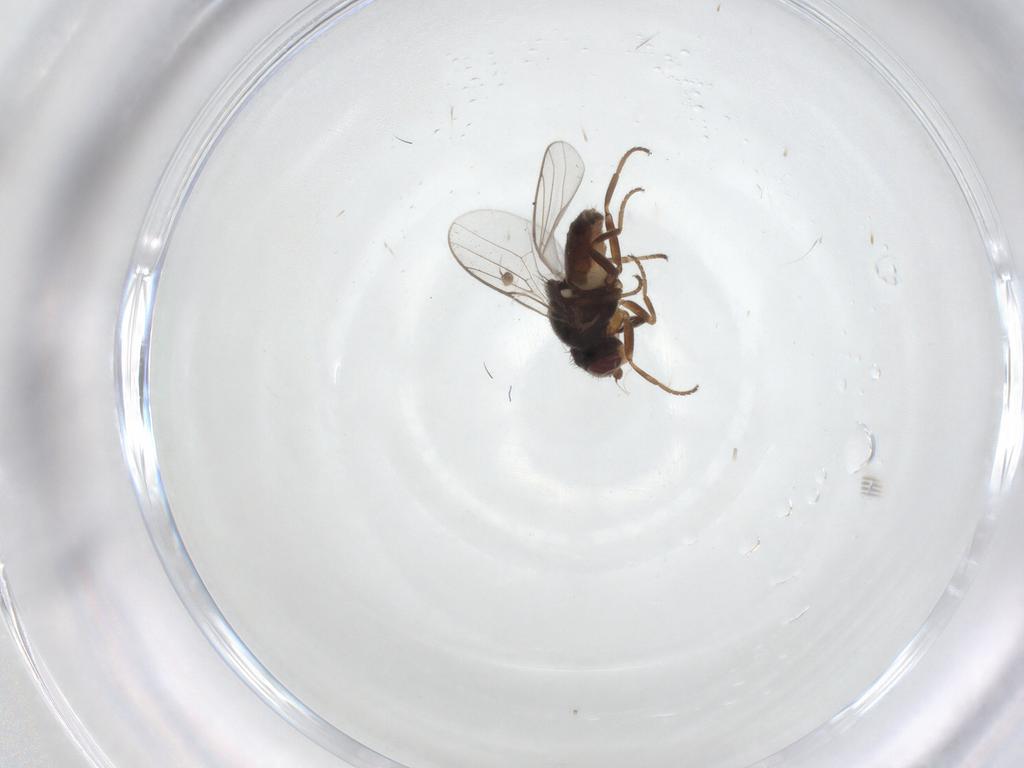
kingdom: Animalia
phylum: Arthropoda
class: Insecta
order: Diptera
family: Chloropidae
